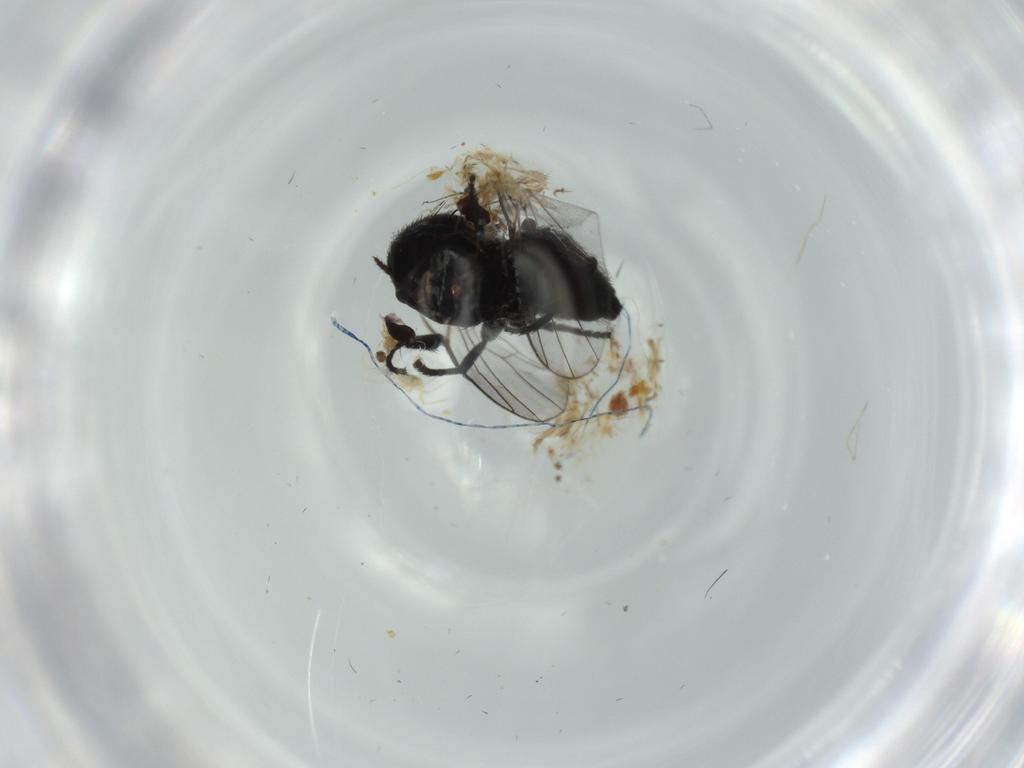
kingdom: Animalia
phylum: Arthropoda
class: Insecta
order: Diptera
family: Agromyzidae
